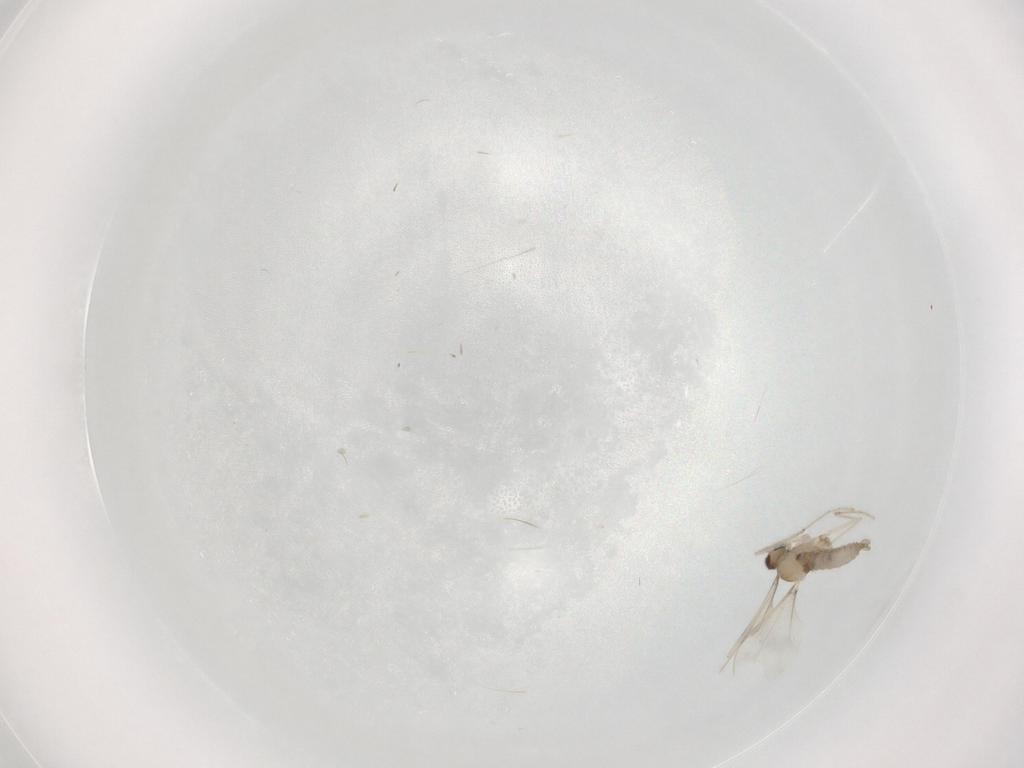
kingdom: Animalia
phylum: Arthropoda
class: Insecta
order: Diptera
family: Cecidomyiidae
